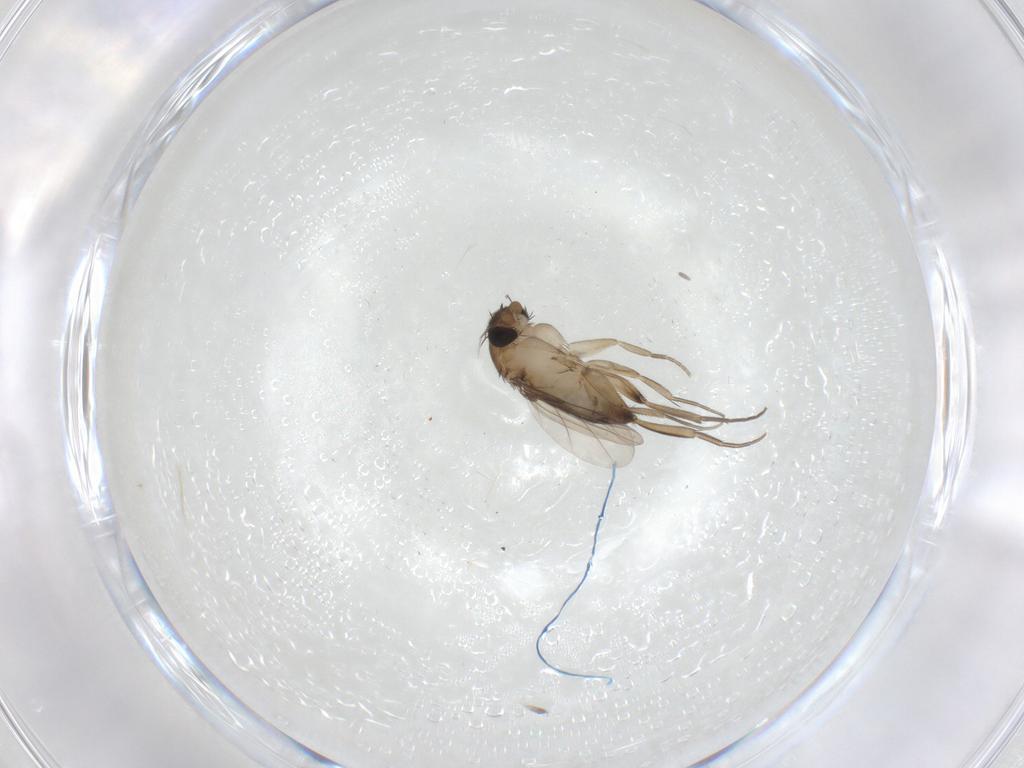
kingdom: Animalia
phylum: Arthropoda
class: Insecta
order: Diptera
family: Phoridae
